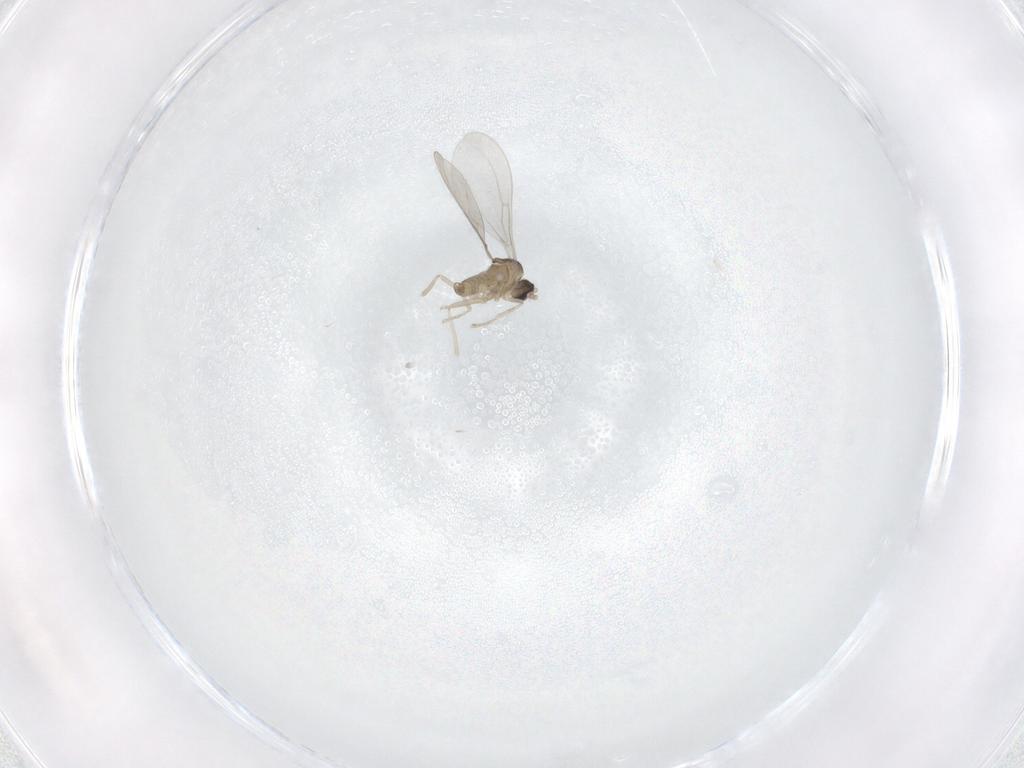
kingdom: Animalia
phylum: Arthropoda
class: Insecta
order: Diptera
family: Cecidomyiidae
